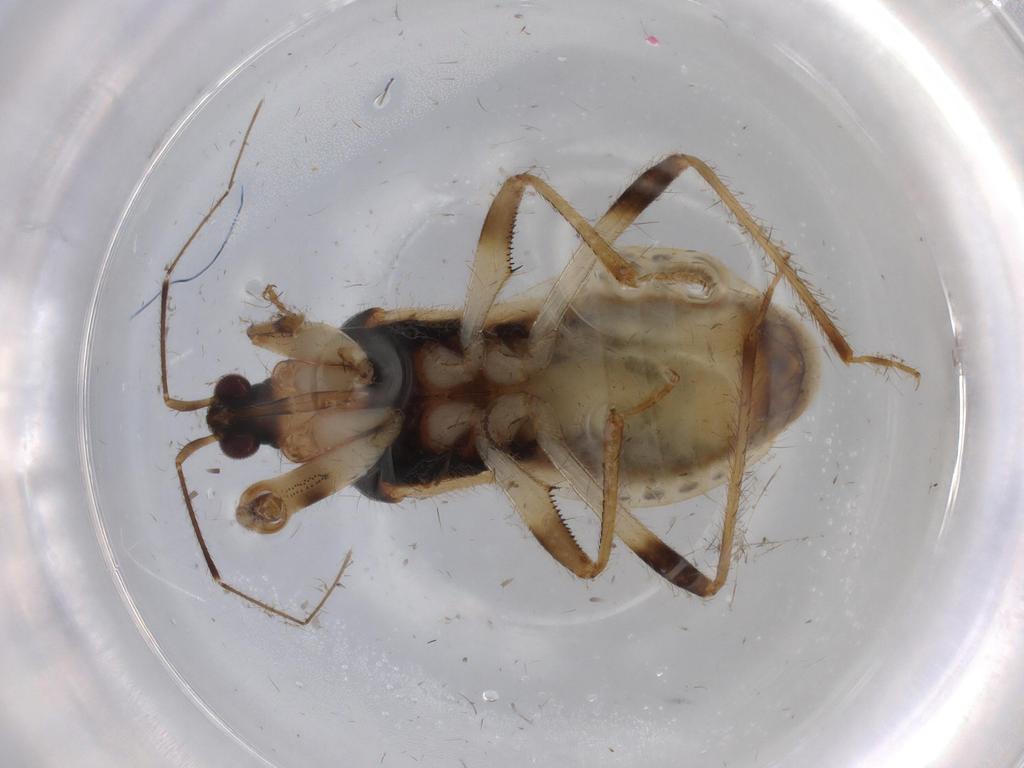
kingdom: Animalia
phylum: Arthropoda
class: Insecta
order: Hemiptera
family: Nabidae
